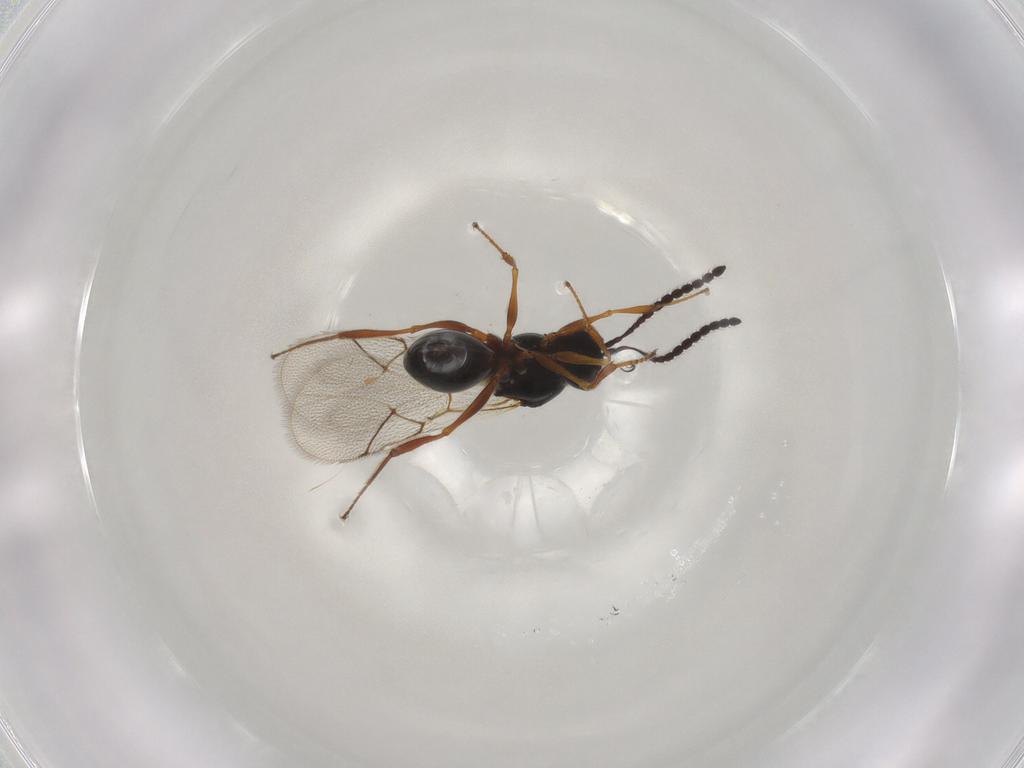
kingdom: Animalia
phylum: Arthropoda
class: Insecta
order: Hymenoptera
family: Figitidae
